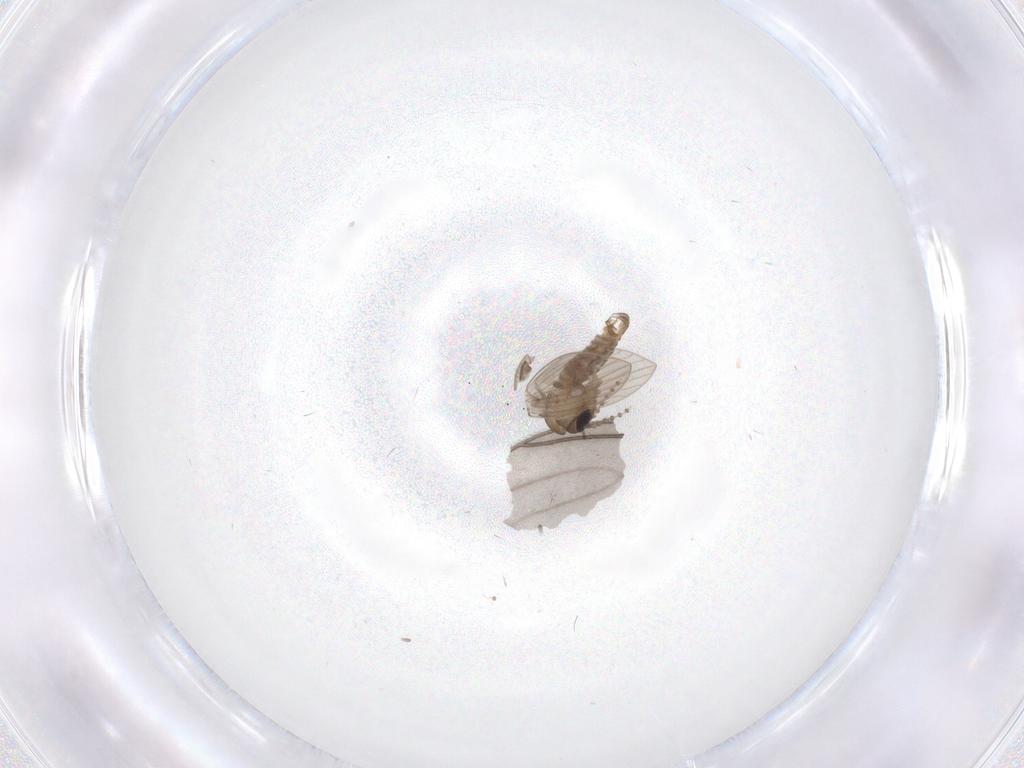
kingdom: Animalia
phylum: Arthropoda
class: Insecta
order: Diptera
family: Psychodidae
